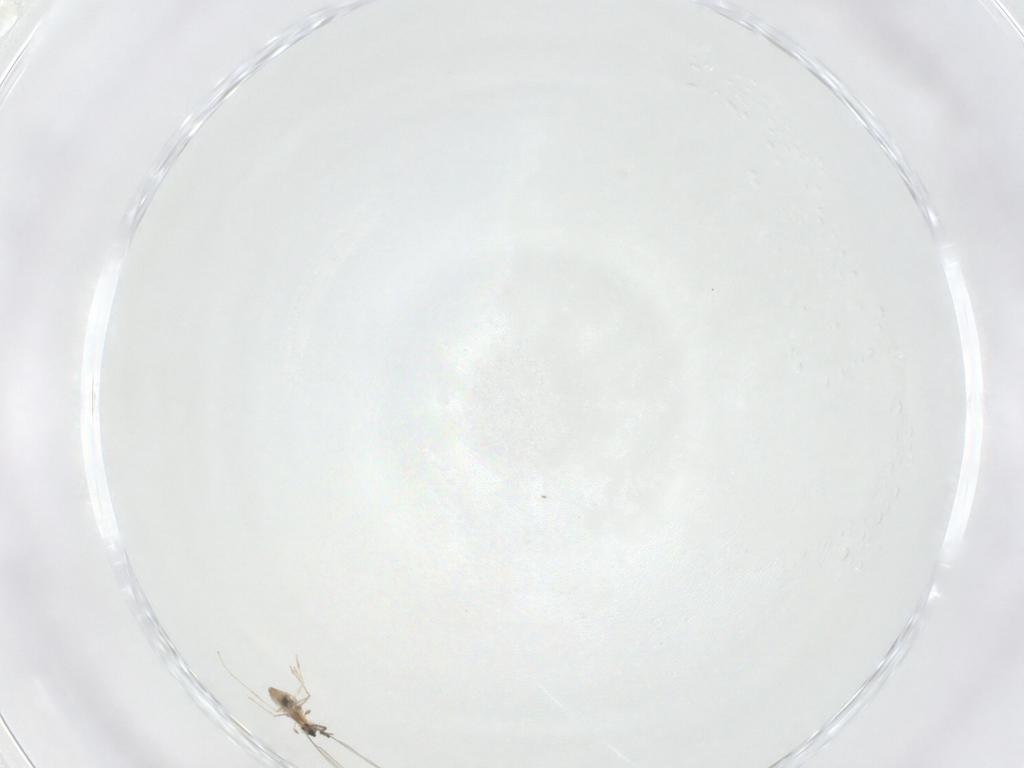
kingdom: Animalia
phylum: Arthropoda
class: Insecta
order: Diptera
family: Cecidomyiidae
